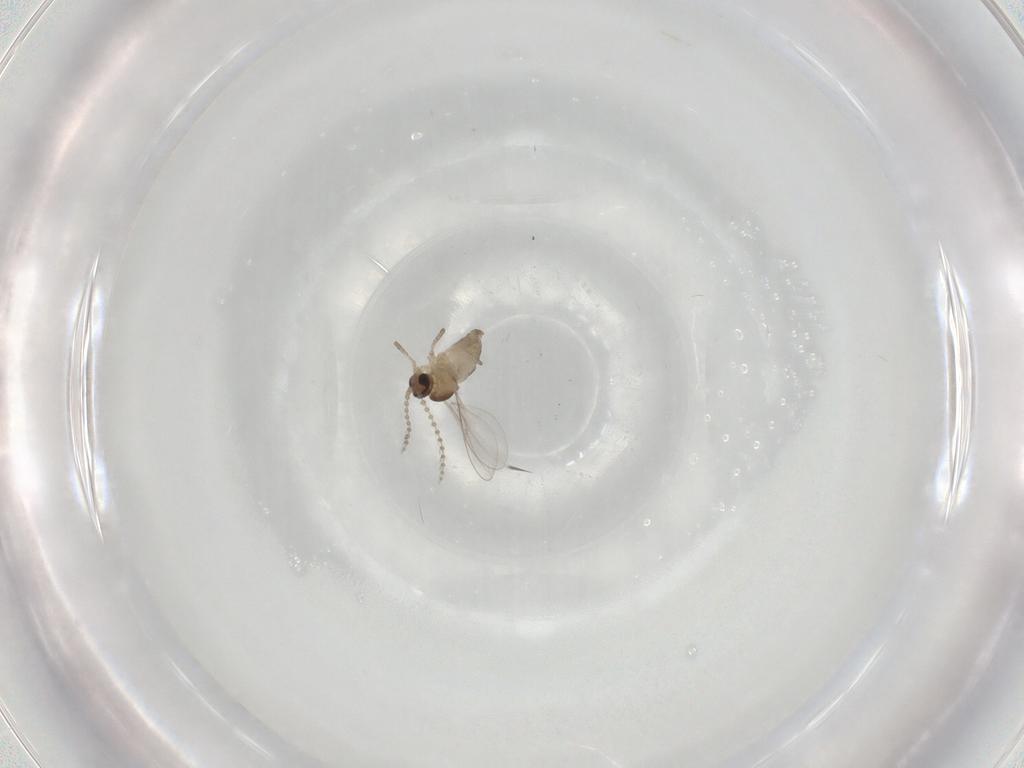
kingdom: Animalia
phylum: Arthropoda
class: Insecta
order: Diptera
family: Cecidomyiidae
